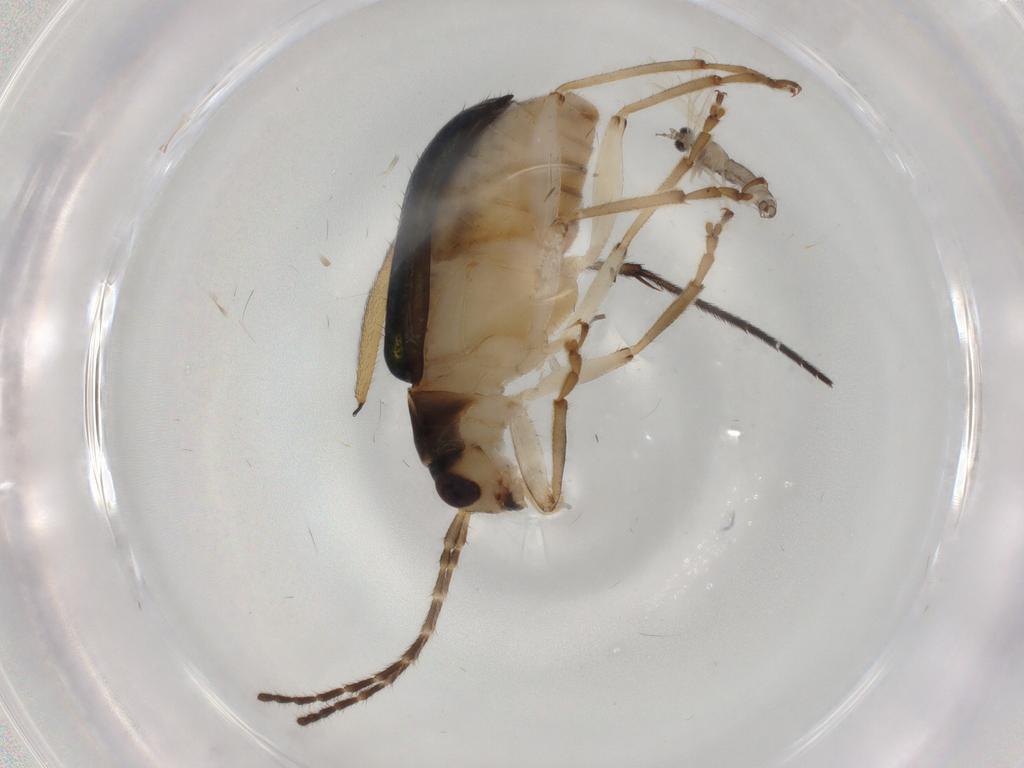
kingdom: Animalia
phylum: Arthropoda
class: Insecta
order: Diptera
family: Cecidomyiidae
